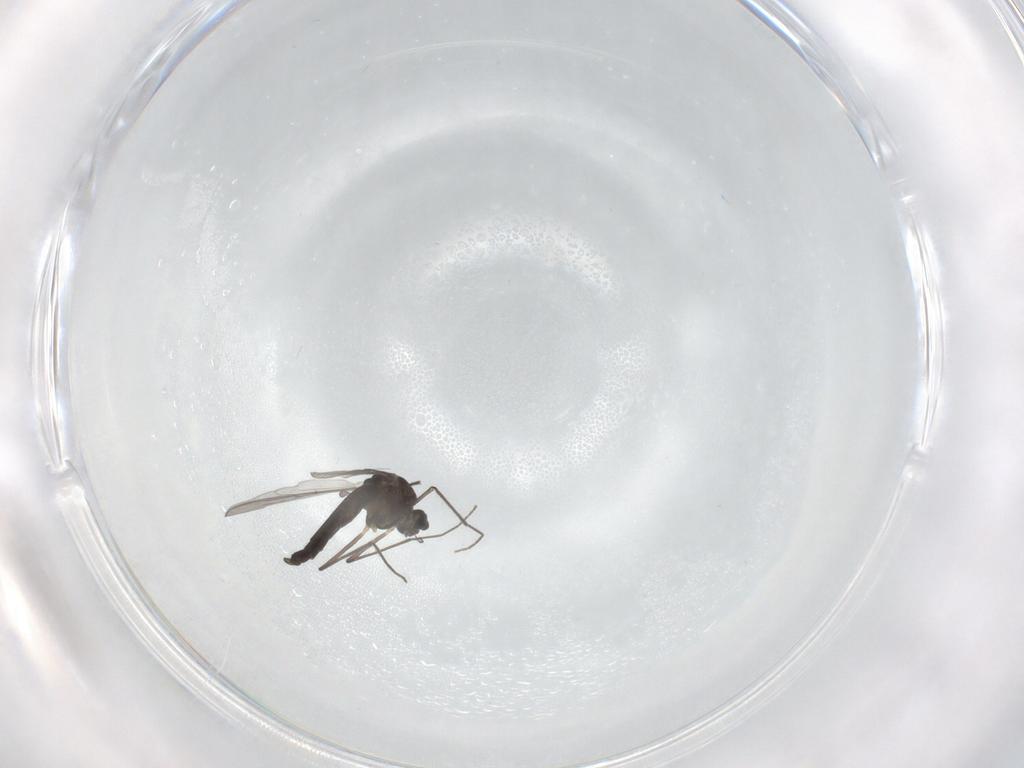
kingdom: Animalia
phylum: Arthropoda
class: Insecta
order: Diptera
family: Chironomidae
